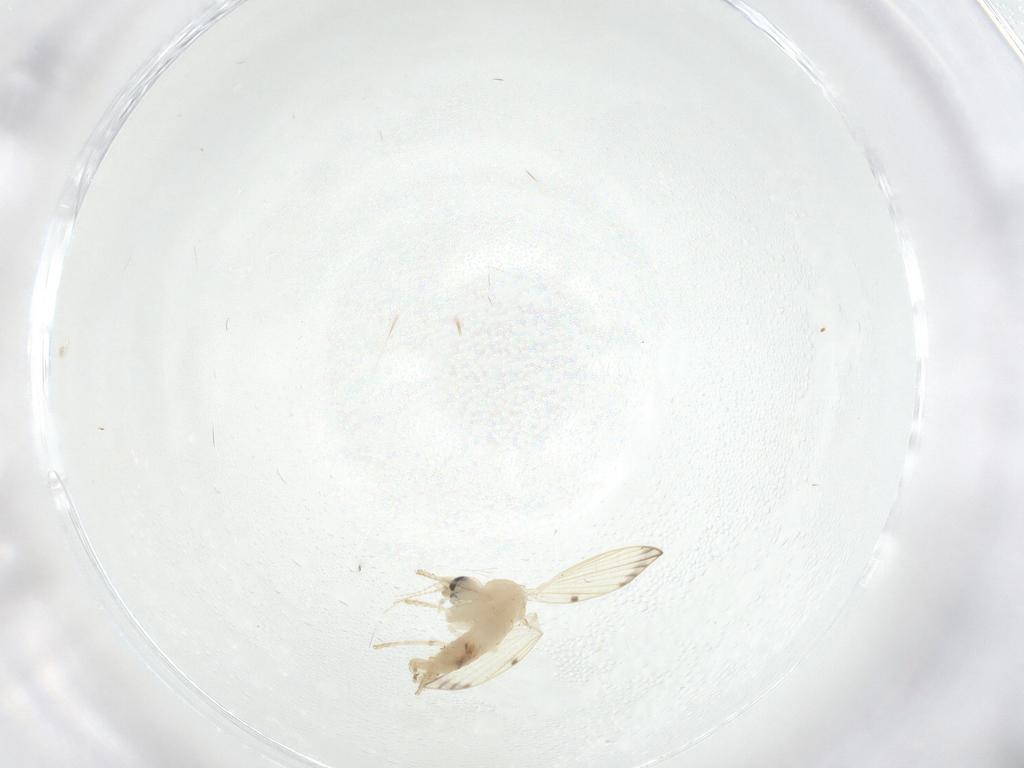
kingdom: Animalia
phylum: Arthropoda
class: Insecta
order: Diptera
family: Psychodidae
